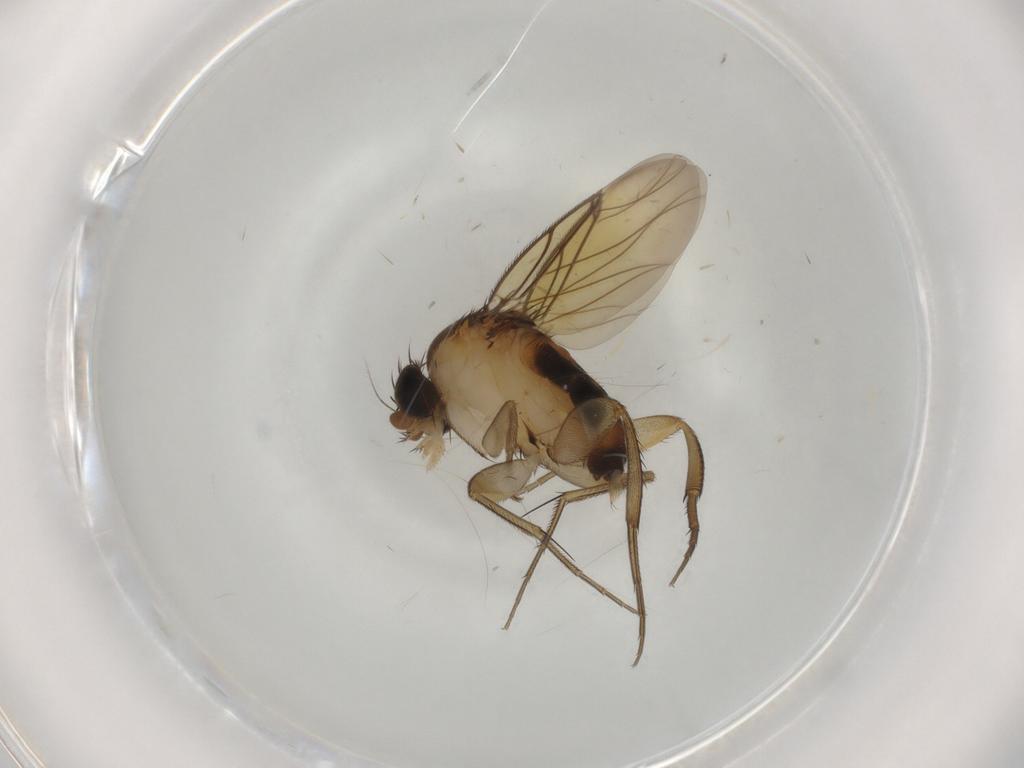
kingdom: Animalia
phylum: Arthropoda
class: Insecta
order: Diptera
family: Cecidomyiidae
